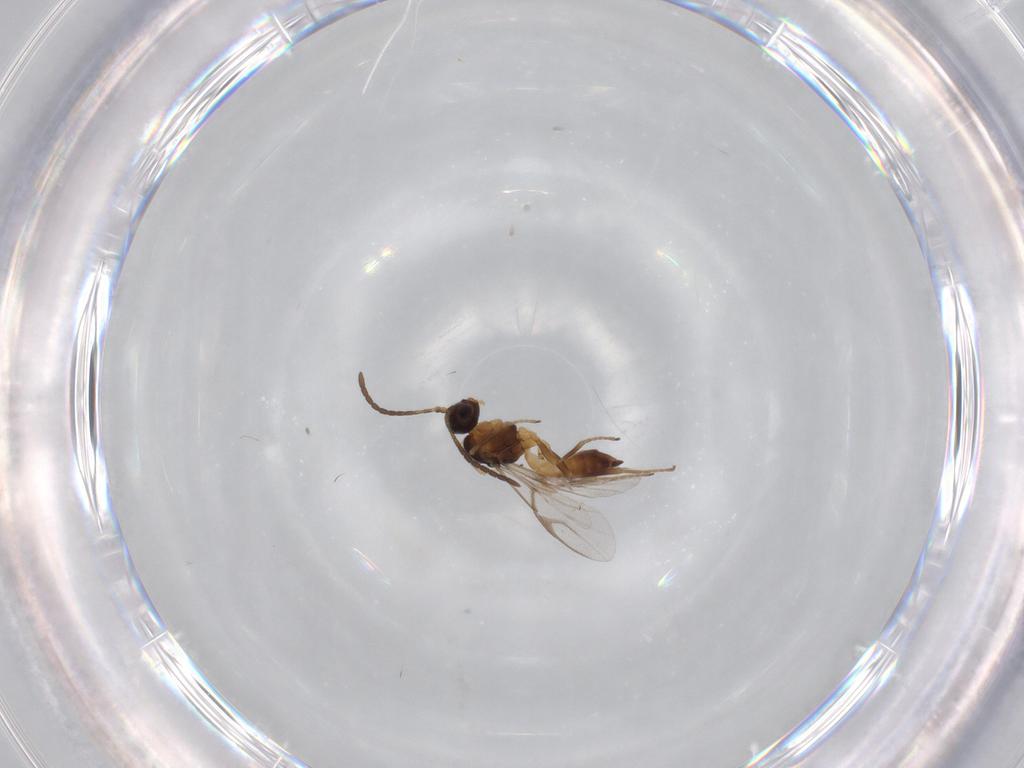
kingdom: Animalia
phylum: Arthropoda
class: Insecta
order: Hymenoptera
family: Braconidae
